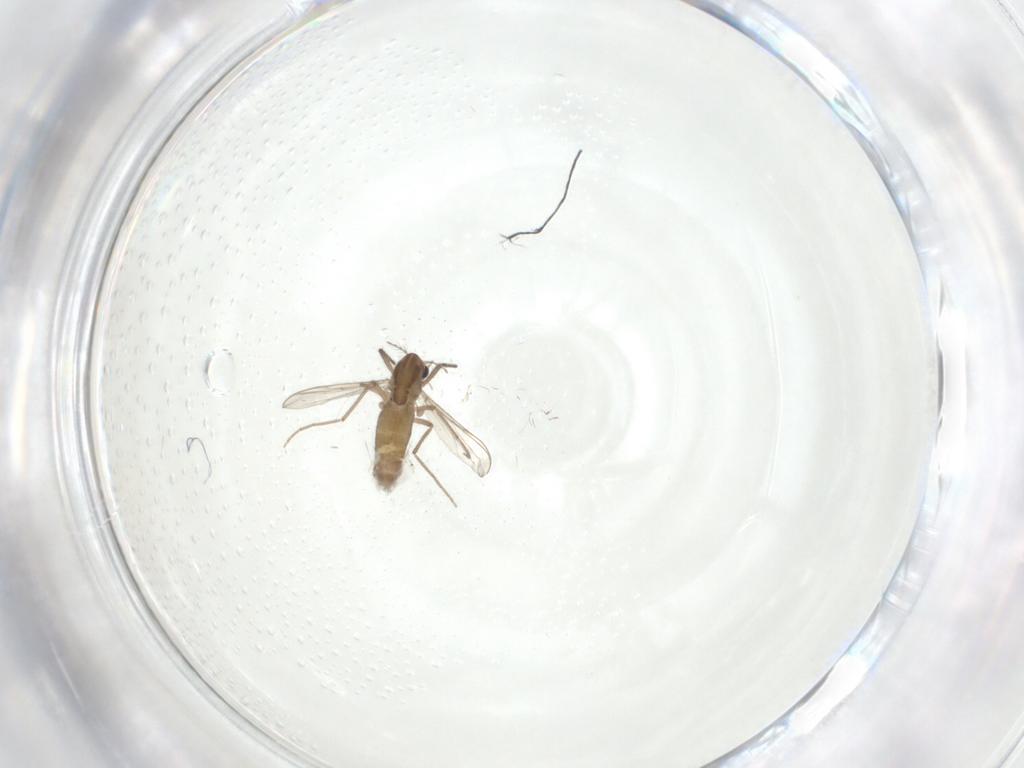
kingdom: Animalia
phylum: Arthropoda
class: Insecta
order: Diptera
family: Chironomidae
